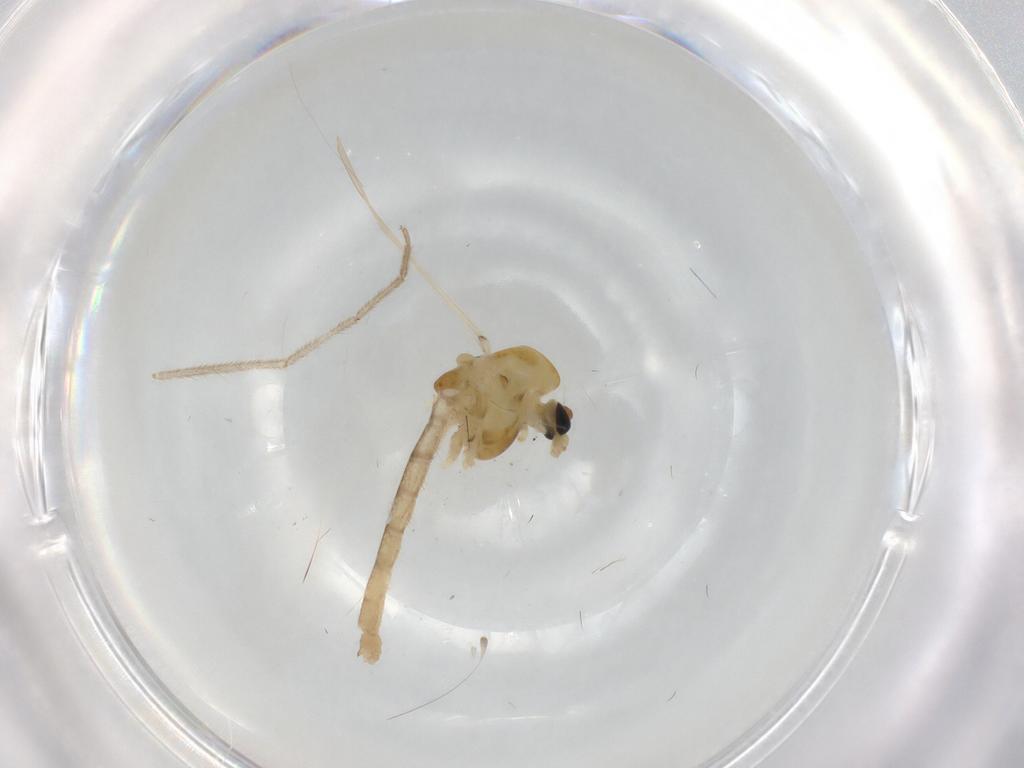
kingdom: Animalia
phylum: Arthropoda
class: Insecta
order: Diptera
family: Chironomidae
